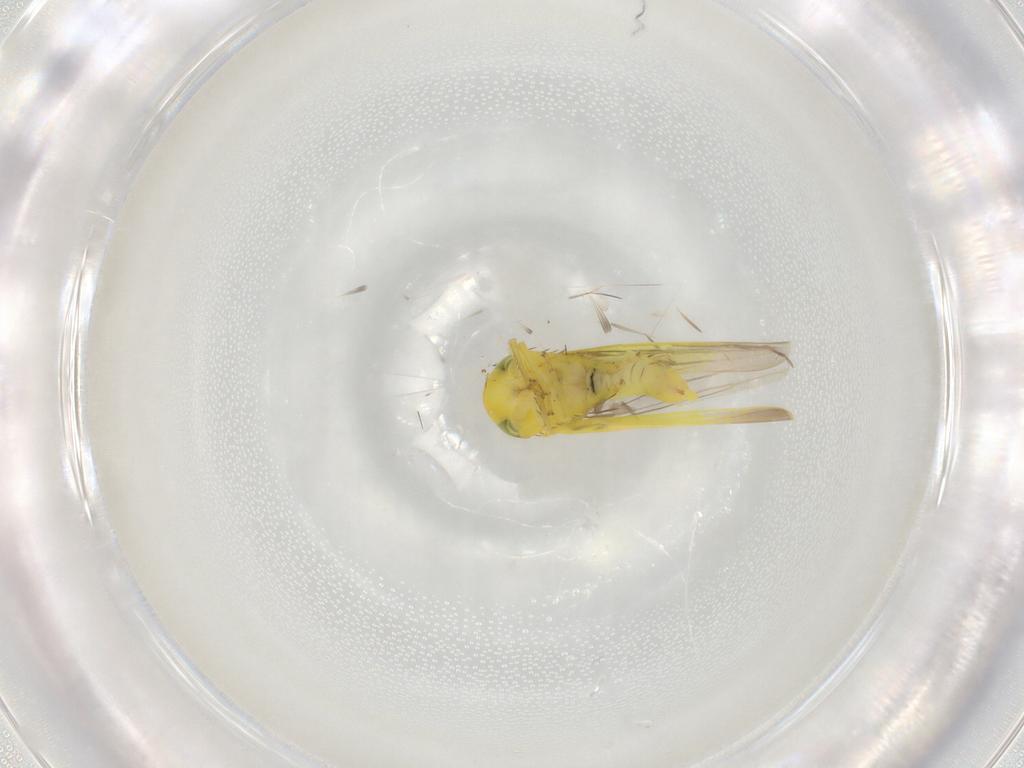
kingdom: Animalia
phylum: Arthropoda
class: Insecta
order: Hemiptera
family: Cicadellidae
